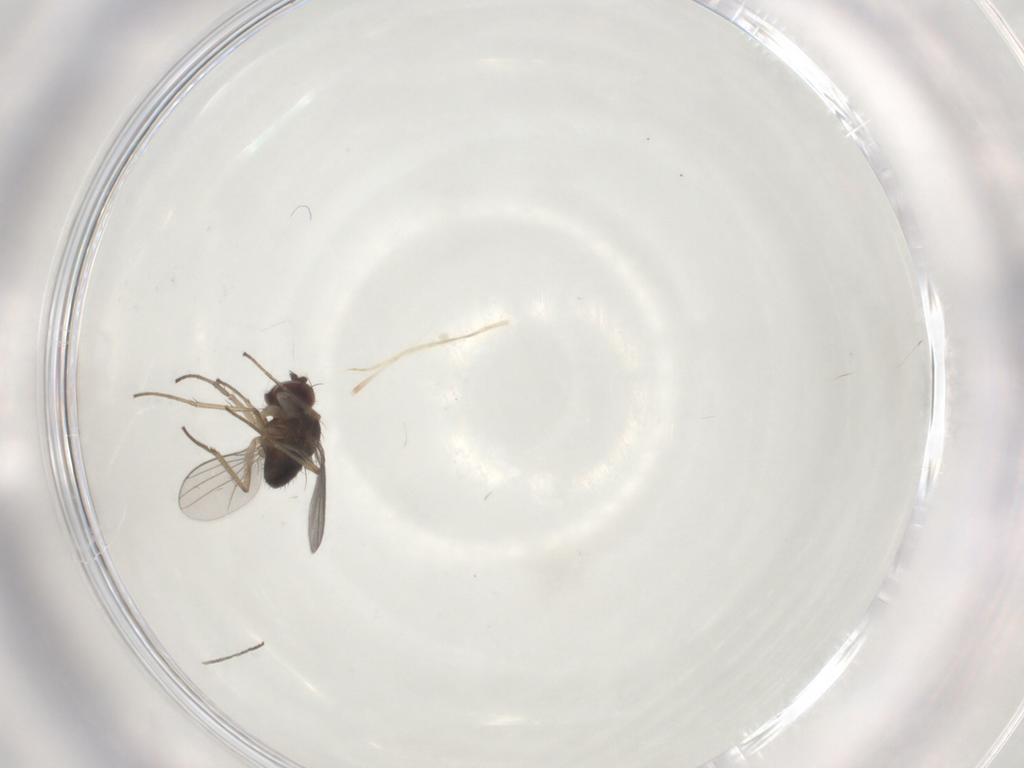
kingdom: Animalia
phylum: Arthropoda
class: Insecta
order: Diptera
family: Dolichopodidae
